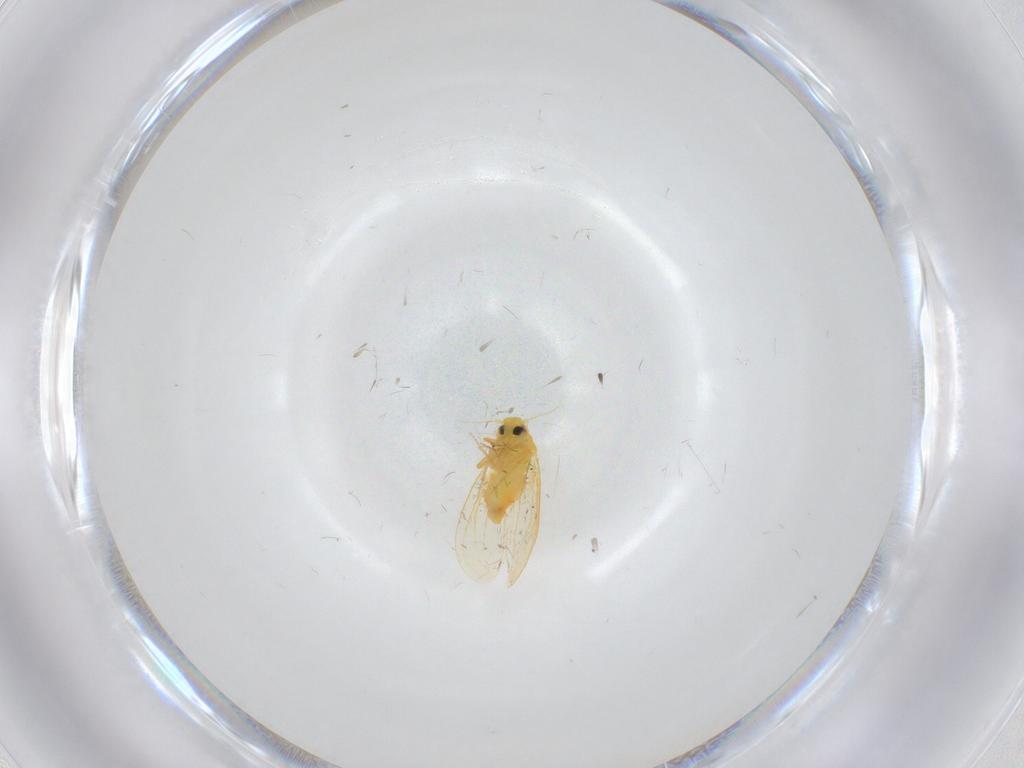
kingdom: Animalia
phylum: Arthropoda
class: Insecta
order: Hemiptera
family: Aleyrodidae
